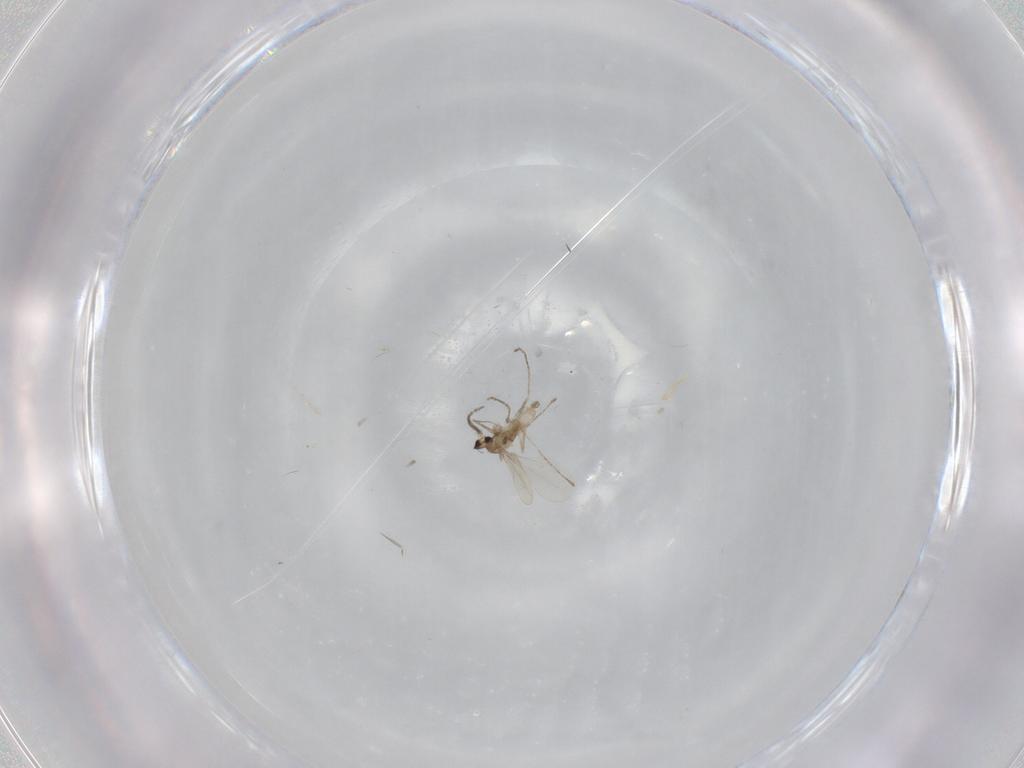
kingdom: Animalia
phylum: Arthropoda
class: Insecta
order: Diptera
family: Cecidomyiidae
